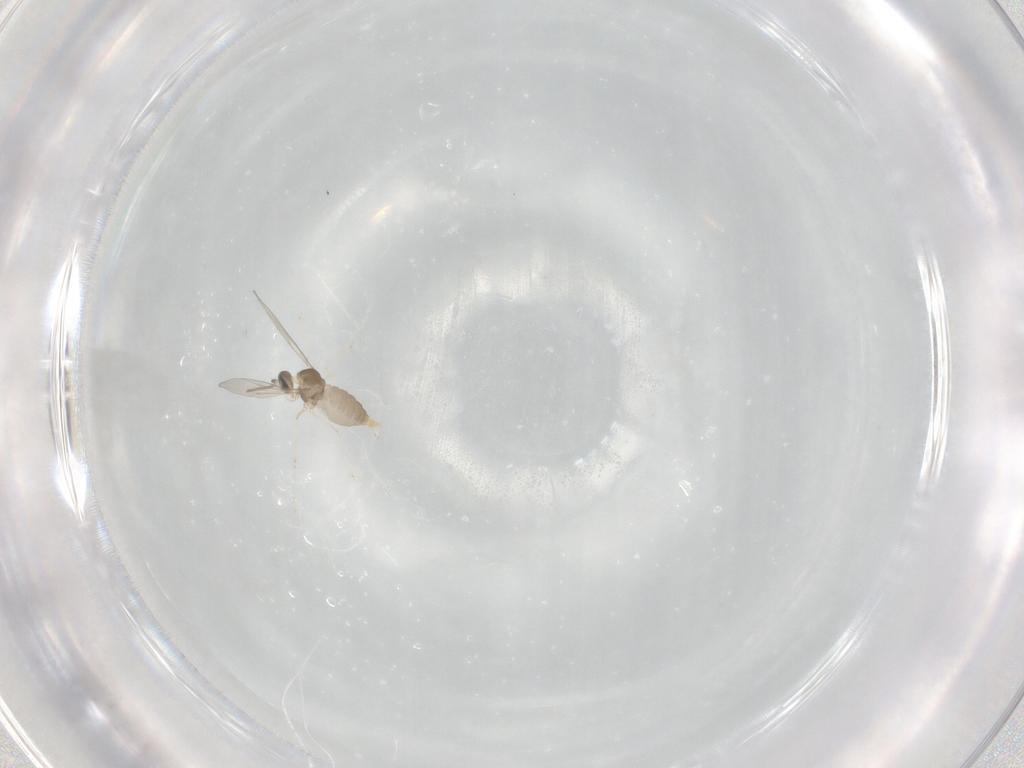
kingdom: Animalia
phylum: Arthropoda
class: Insecta
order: Diptera
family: Cecidomyiidae
